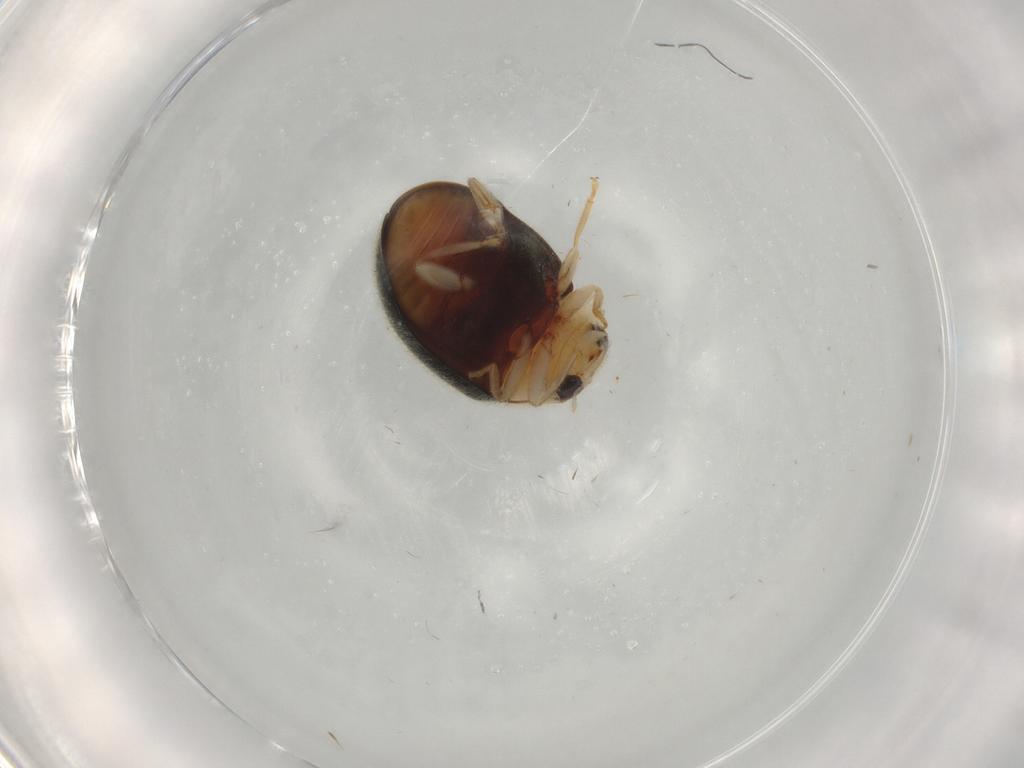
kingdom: Animalia
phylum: Arthropoda
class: Insecta
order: Coleoptera
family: Coccinellidae
